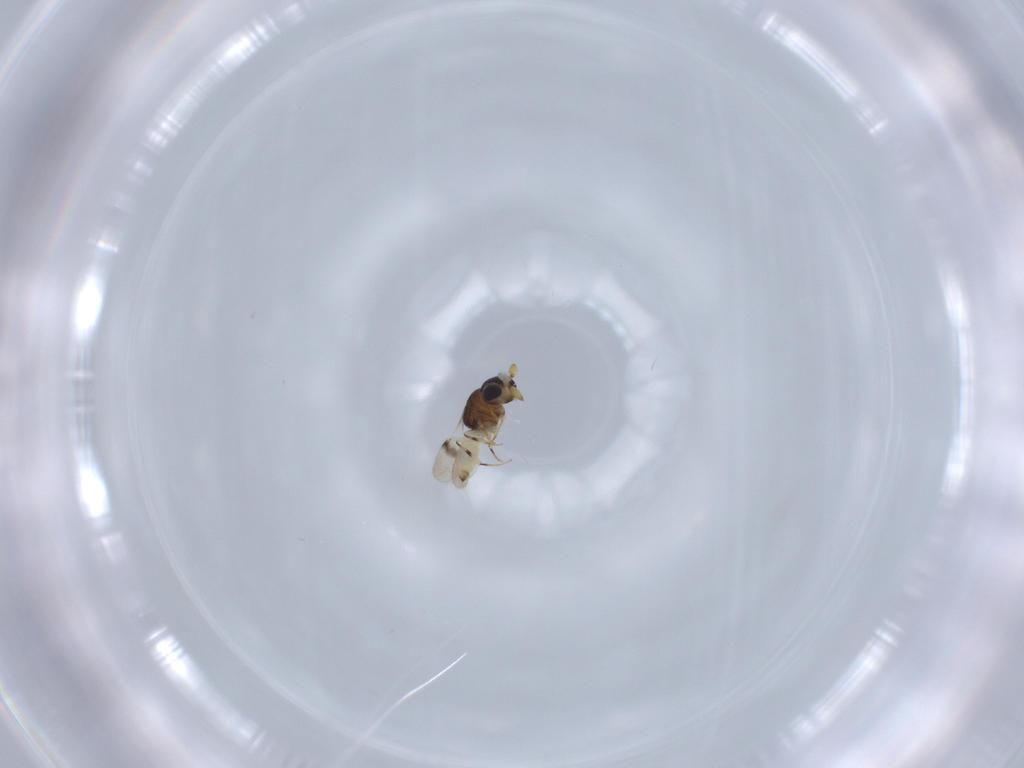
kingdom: Animalia
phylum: Arthropoda
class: Insecta
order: Hymenoptera
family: Scelionidae
